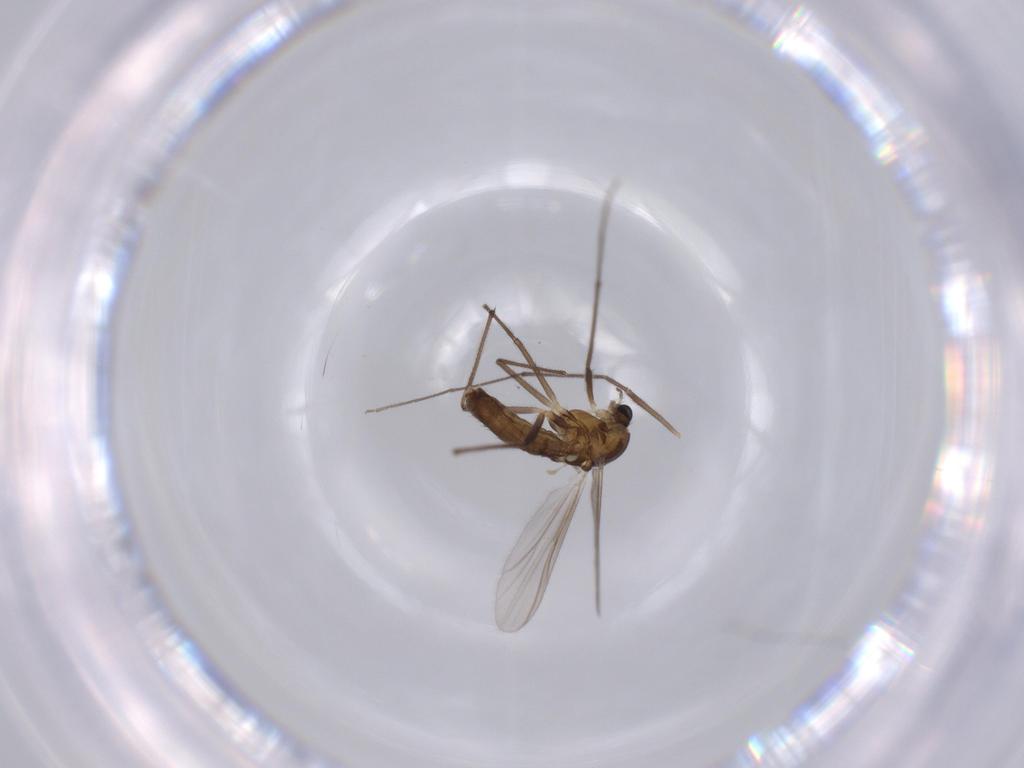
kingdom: Animalia
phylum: Arthropoda
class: Insecta
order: Diptera
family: Chironomidae
